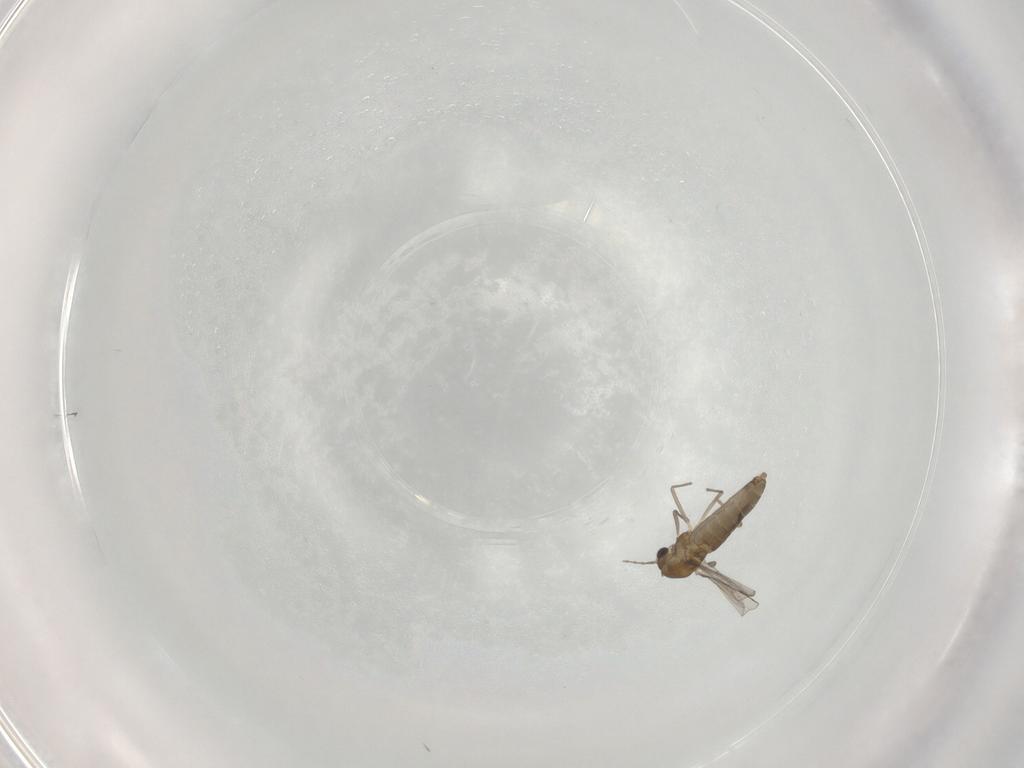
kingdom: Animalia
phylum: Arthropoda
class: Insecta
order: Diptera
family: Chironomidae
